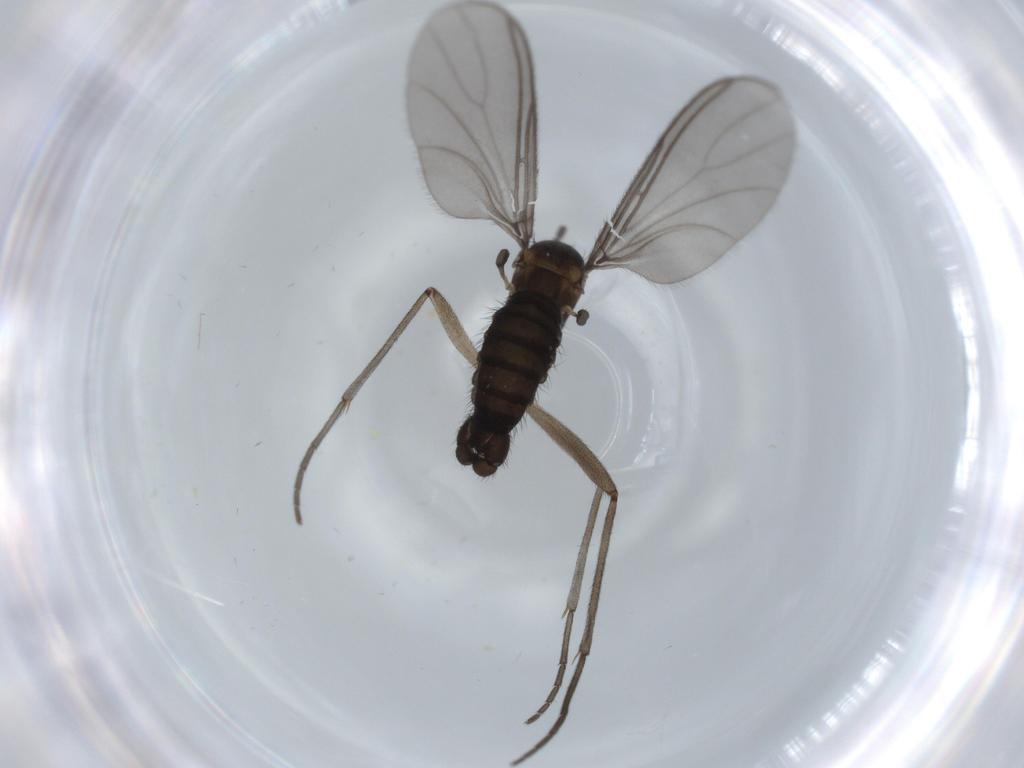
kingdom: Animalia
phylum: Arthropoda
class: Insecta
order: Diptera
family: Sciaridae
